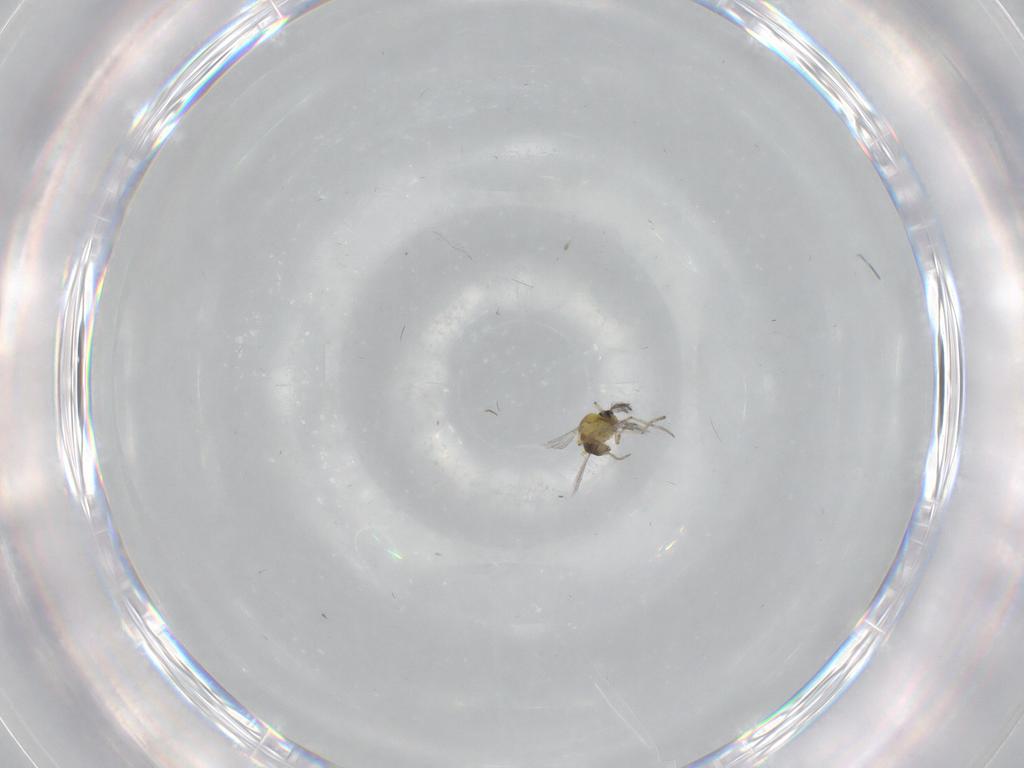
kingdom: Animalia
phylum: Arthropoda
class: Insecta
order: Diptera
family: Ceratopogonidae
